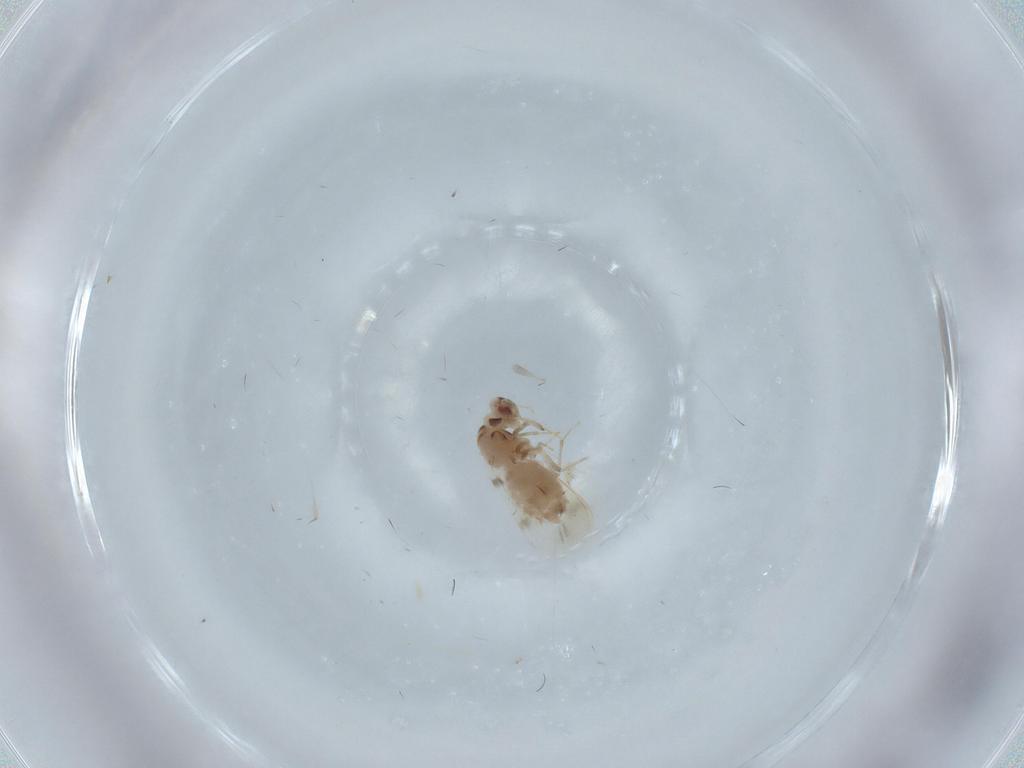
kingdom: Animalia
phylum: Arthropoda
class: Insecta
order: Hemiptera
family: Aleyrodidae
